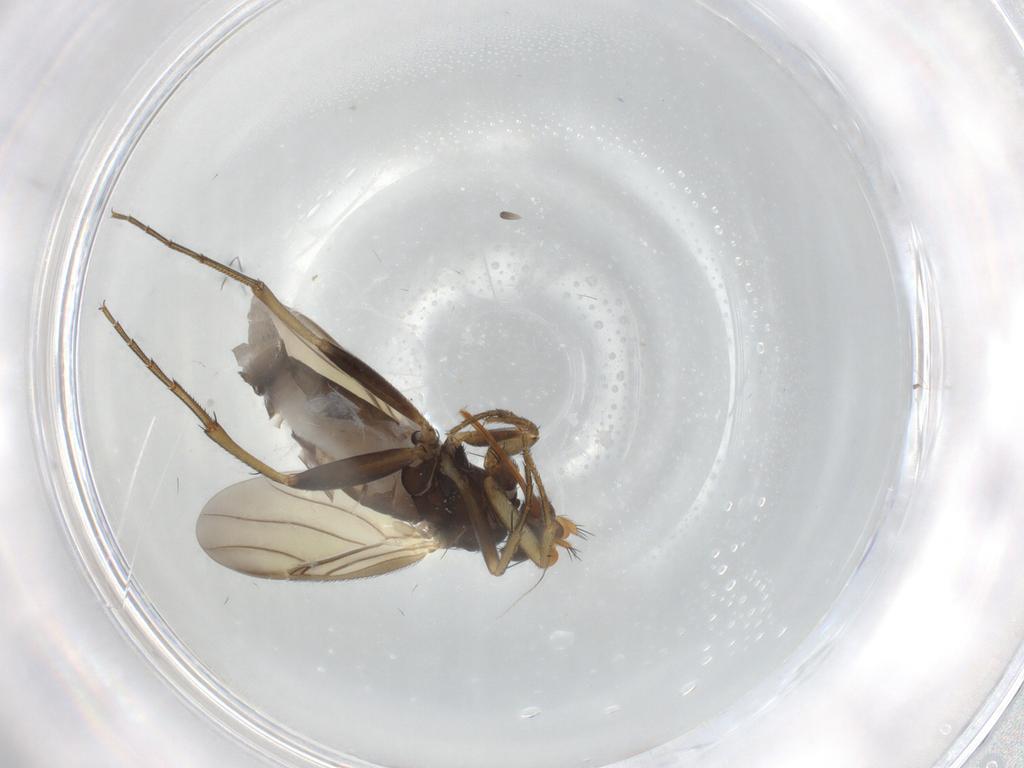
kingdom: Animalia
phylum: Arthropoda
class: Insecta
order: Diptera
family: Phoridae
